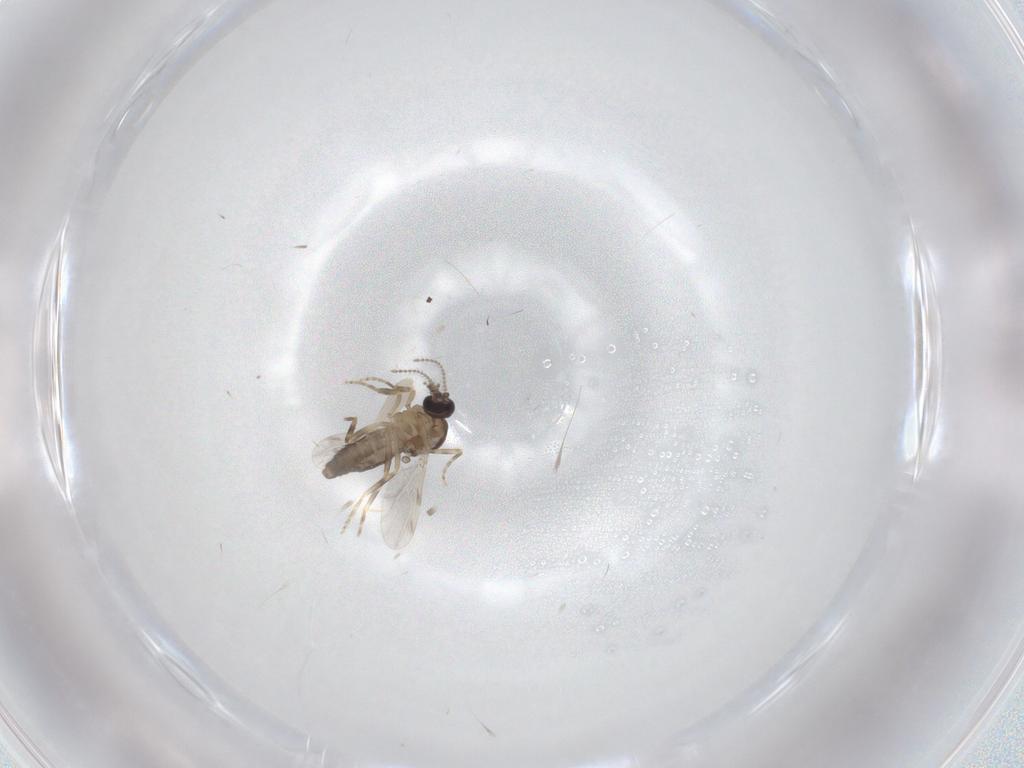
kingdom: Animalia
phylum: Arthropoda
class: Insecta
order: Diptera
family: Ceratopogonidae
